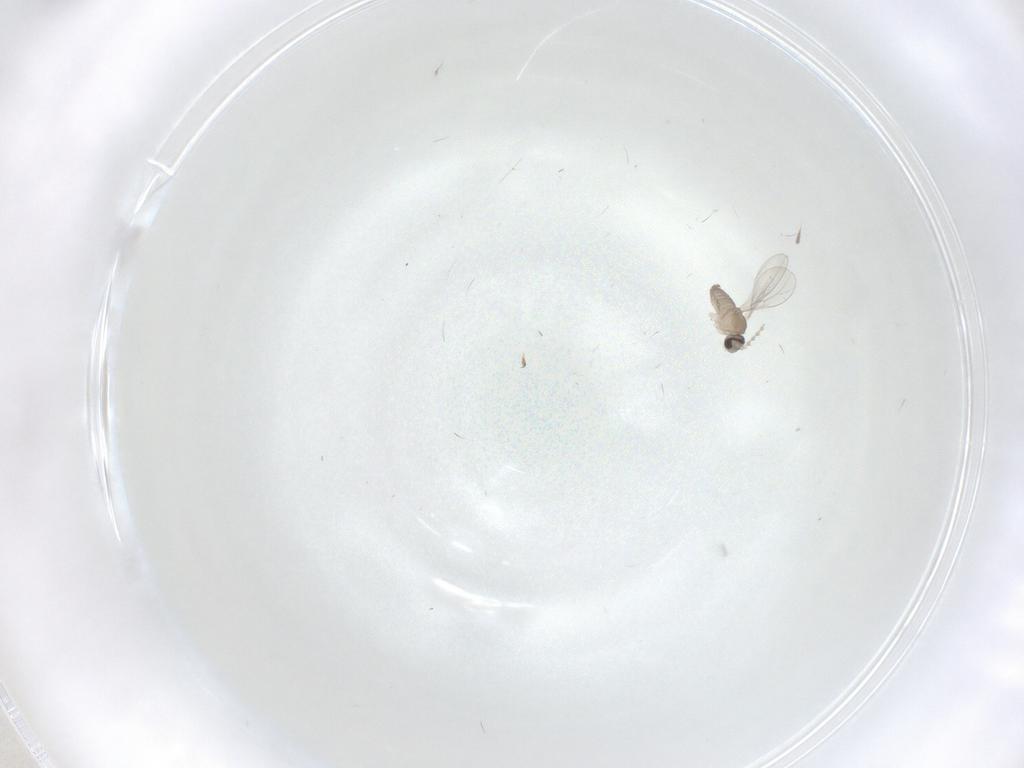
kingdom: Animalia
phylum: Arthropoda
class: Insecta
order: Diptera
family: Cecidomyiidae
